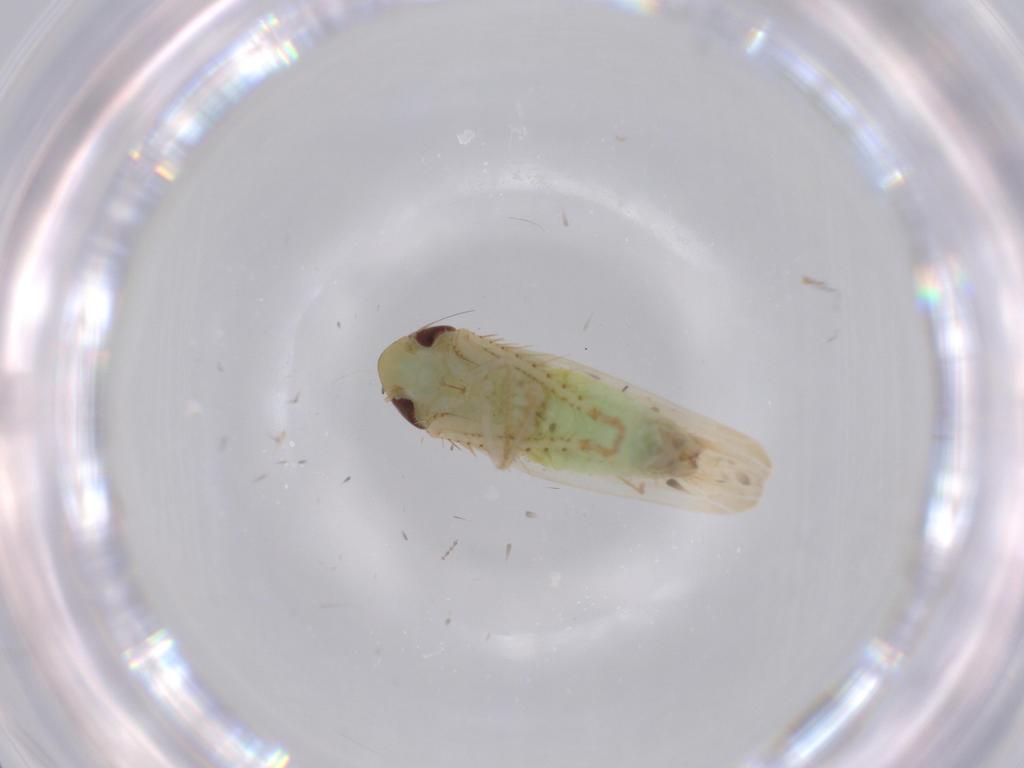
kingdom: Animalia
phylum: Arthropoda
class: Insecta
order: Hemiptera
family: Cicadellidae
